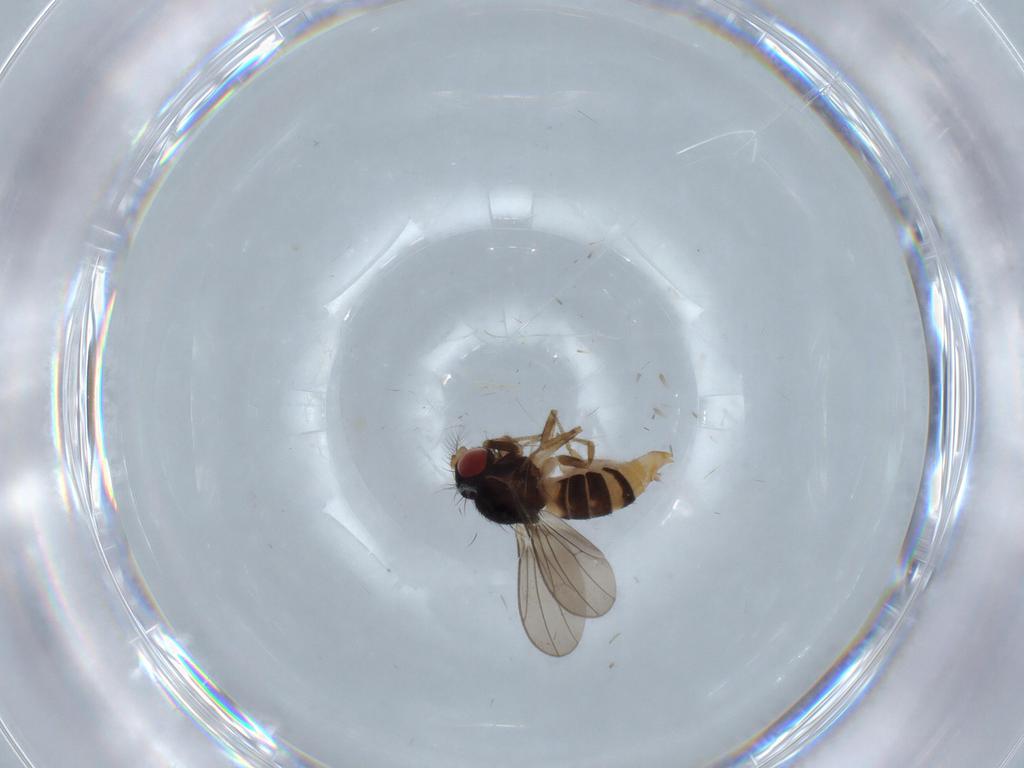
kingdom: Animalia
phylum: Arthropoda
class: Insecta
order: Diptera
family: Drosophilidae
